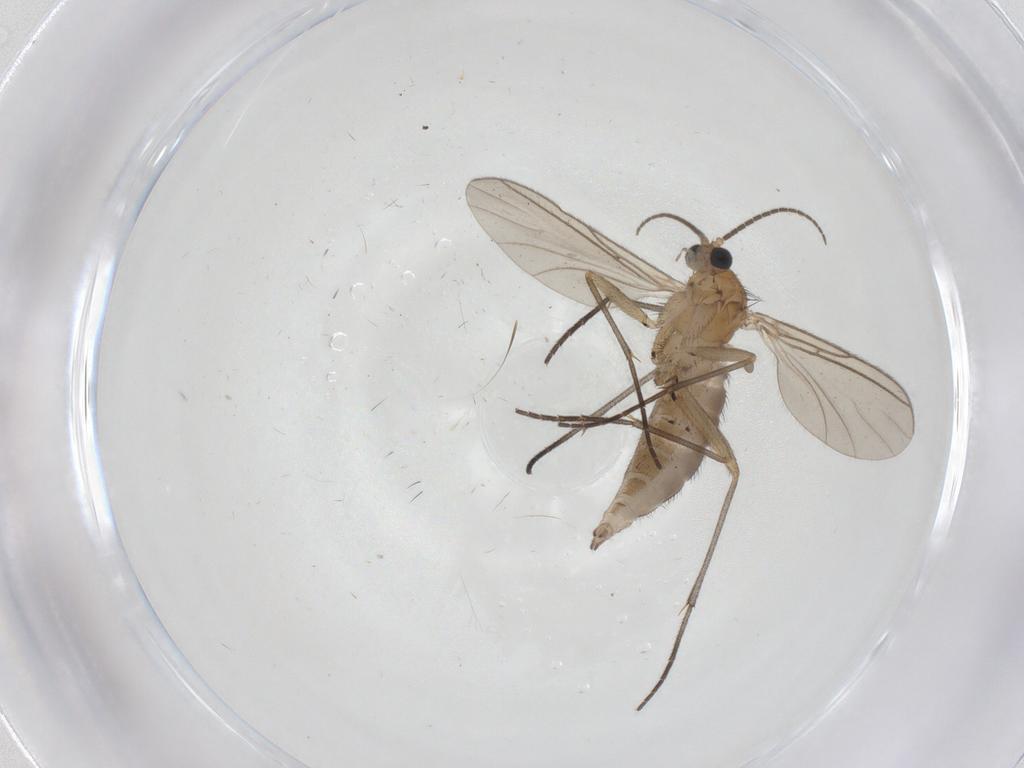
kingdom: Animalia
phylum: Arthropoda
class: Insecta
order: Diptera
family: Sciaridae
